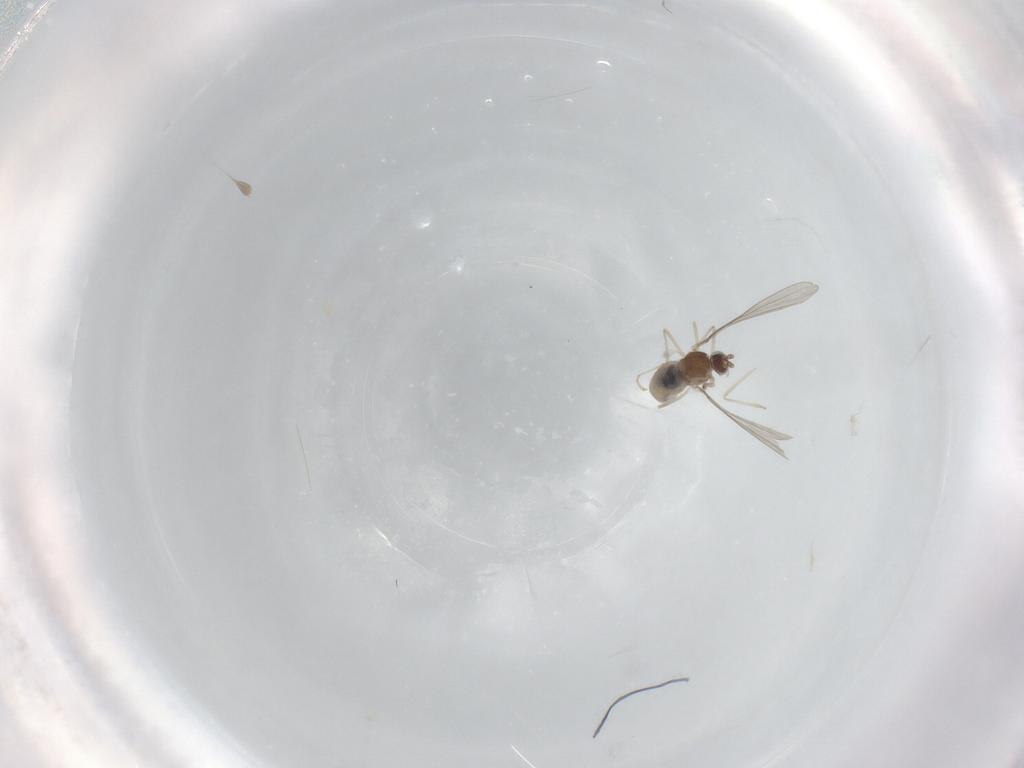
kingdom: Animalia
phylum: Arthropoda
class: Insecta
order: Diptera
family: Cecidomyiidae
